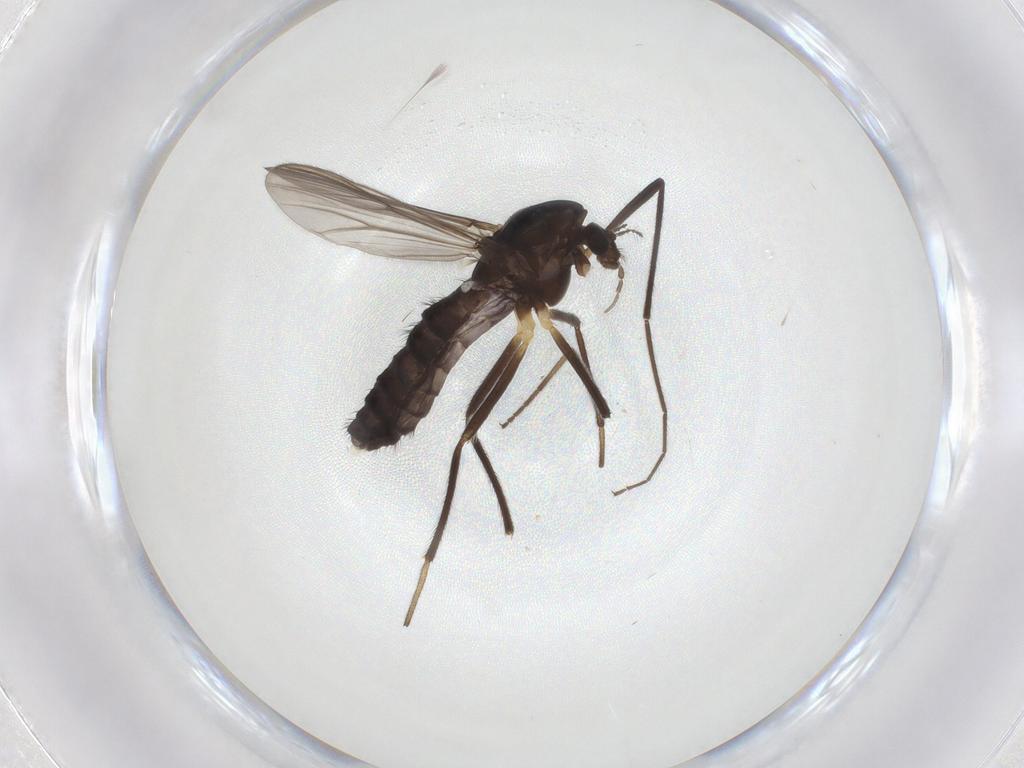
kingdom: Animalia
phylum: Arthropoda
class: Insecta
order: Diptera
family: Chironomidae
